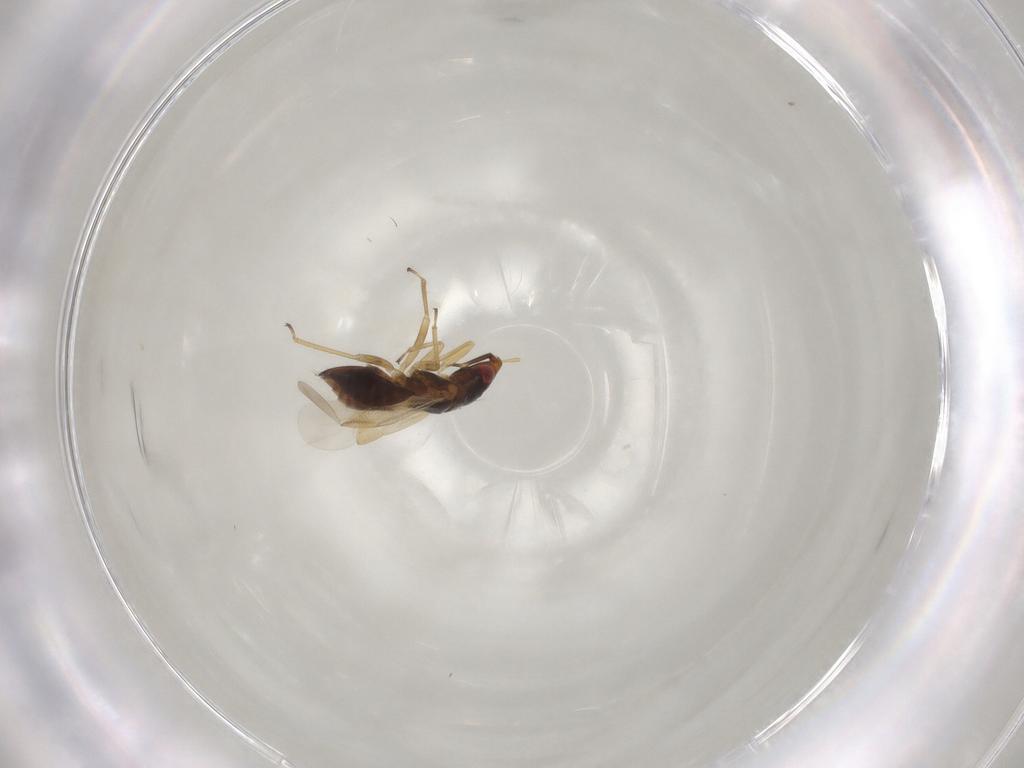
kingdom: Animalia
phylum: Arthropoda
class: Insecta
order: Hemiptera
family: Anthocoridae
